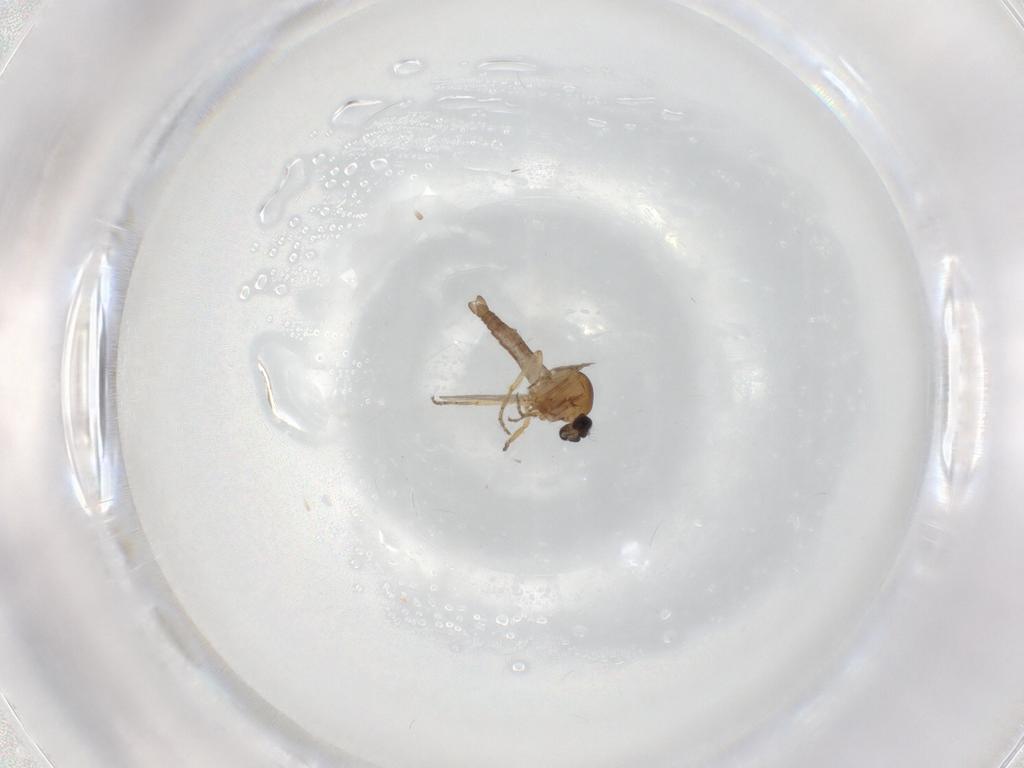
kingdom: Animalia
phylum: Arthropoda
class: Insecta
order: Diptera
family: Ceratopogonidae
